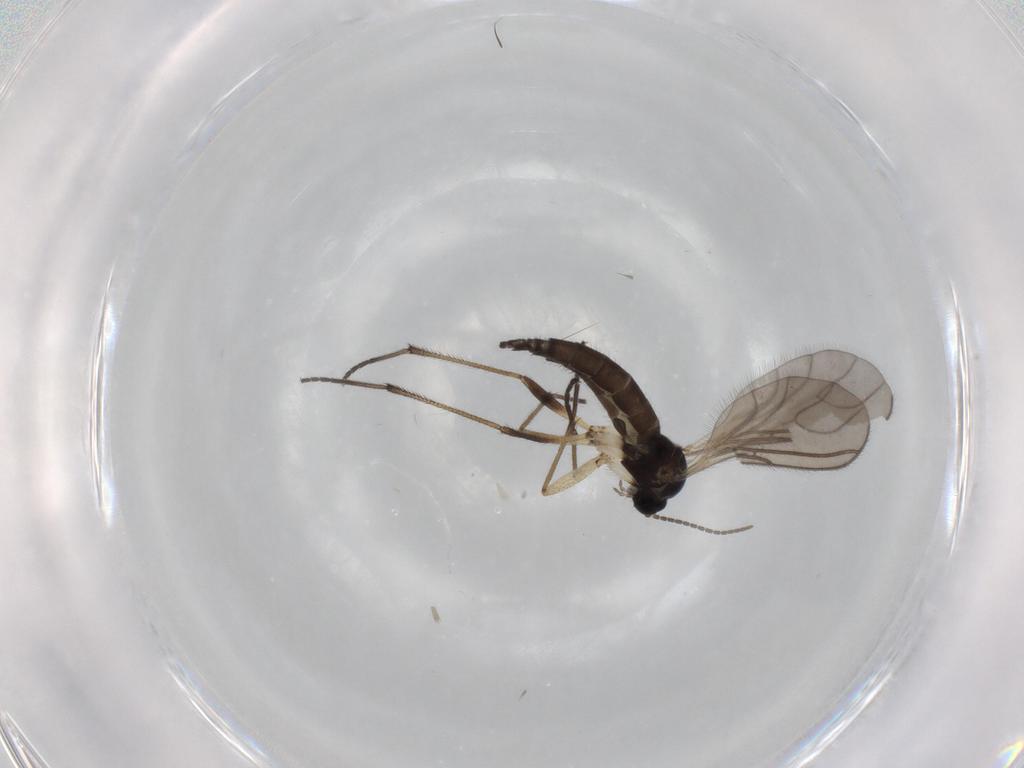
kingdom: Animalia
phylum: Arthropoda
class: Insecta
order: Diptera
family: Sciaridae
